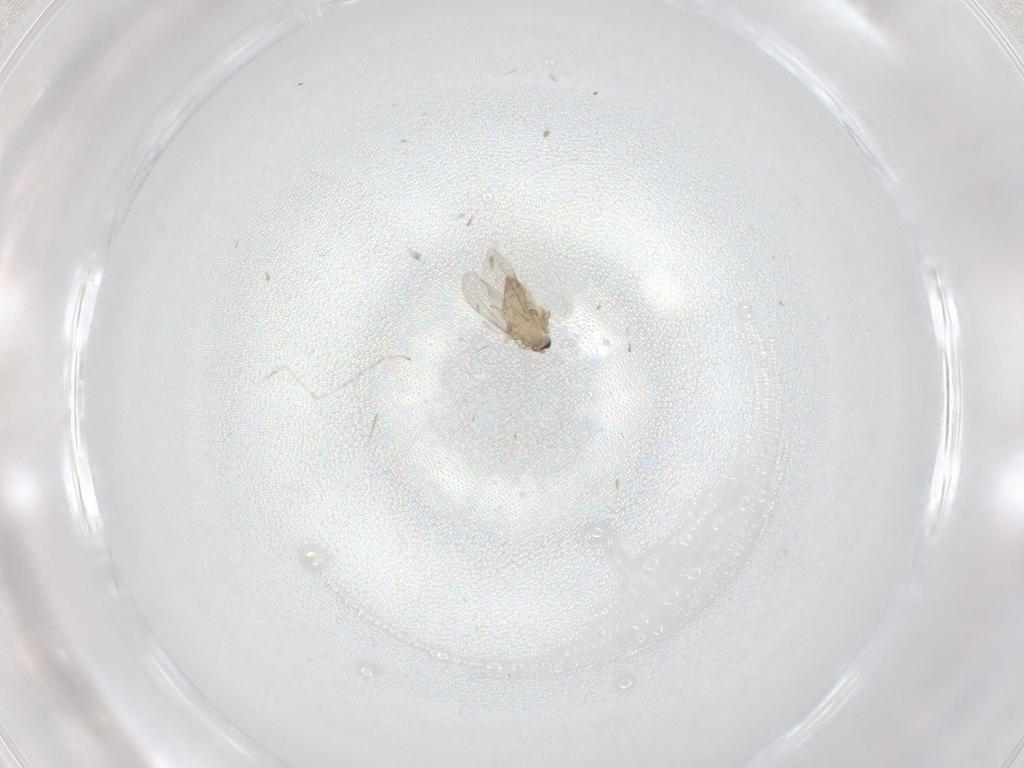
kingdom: Animalia
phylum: Arthropoda
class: Insecta
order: Diptera
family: Cecidomyiidae
